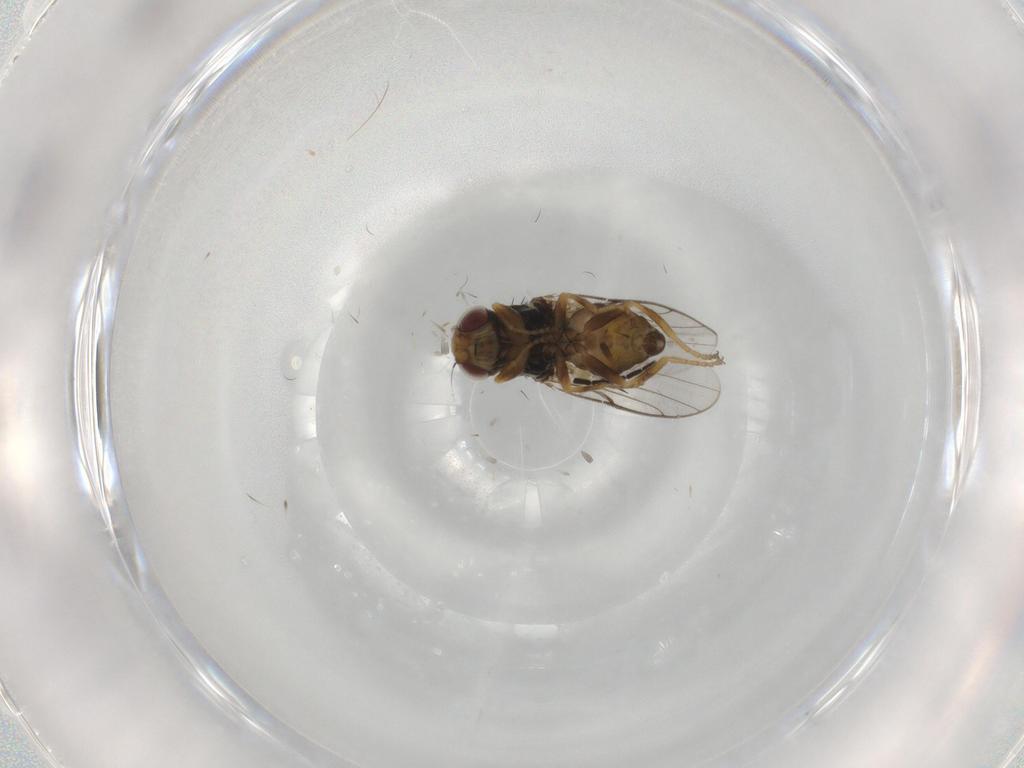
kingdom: Animalia
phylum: Arthropoda
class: Insecta
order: Diptera
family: Chloropidae
